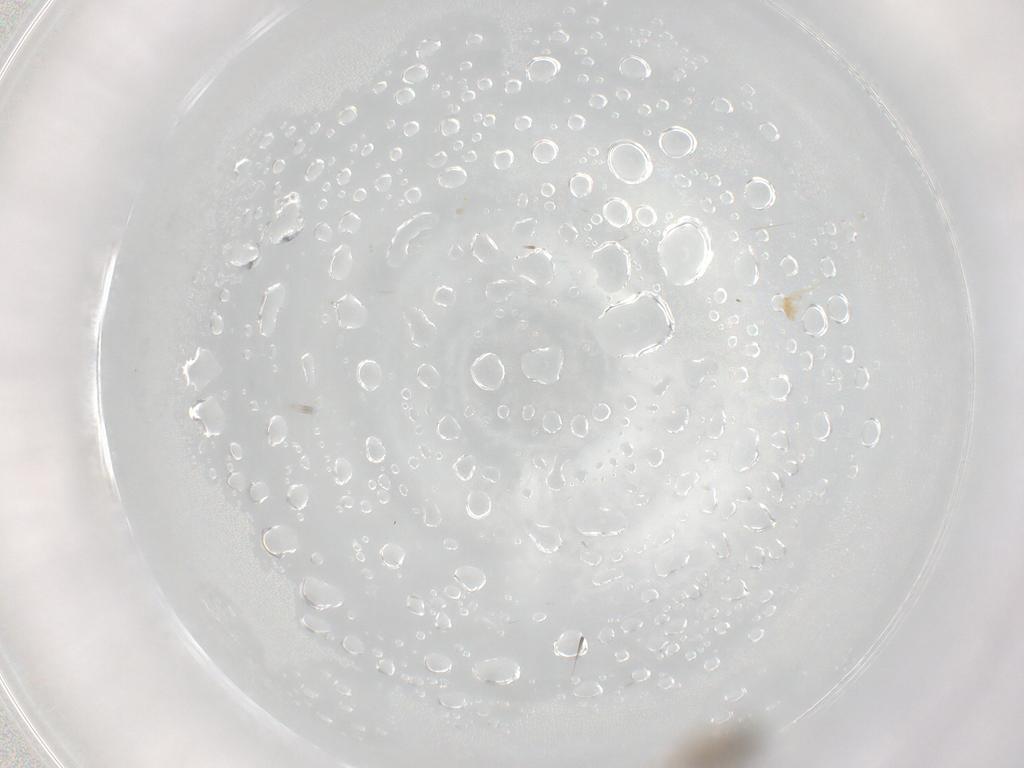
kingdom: Animalia
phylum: Arthropoda
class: Insecta
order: Diptera
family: Cecidomyiidae
